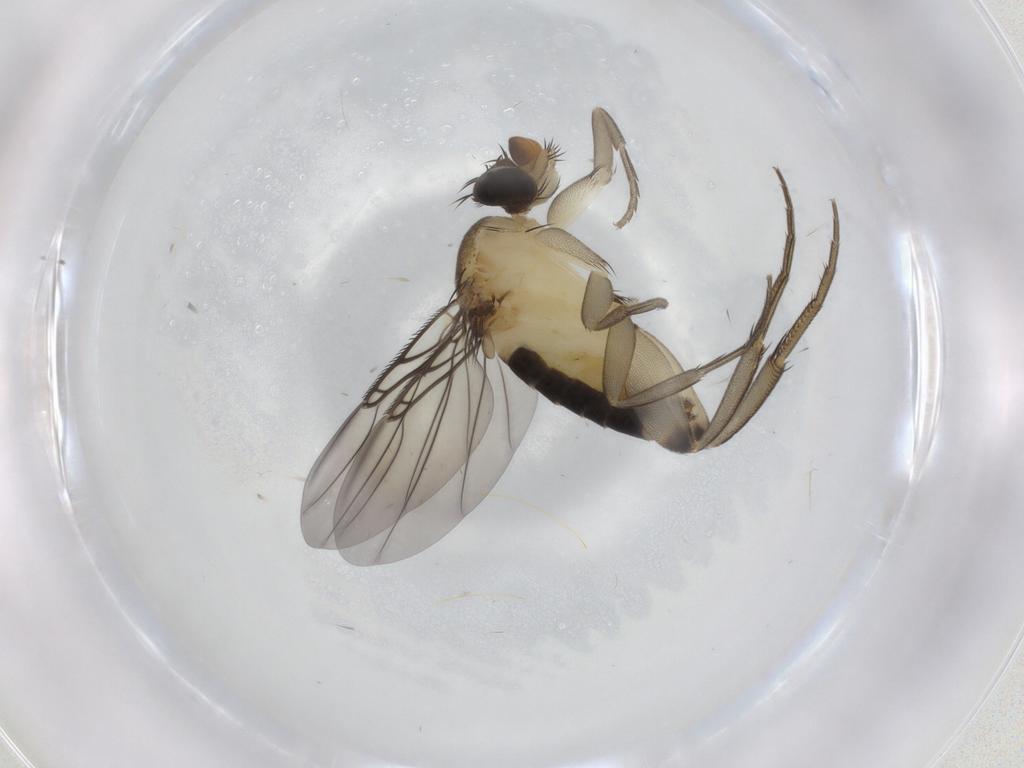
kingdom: Animalia
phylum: Arthropoda
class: Insecta
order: Diptera
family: Phoridae
